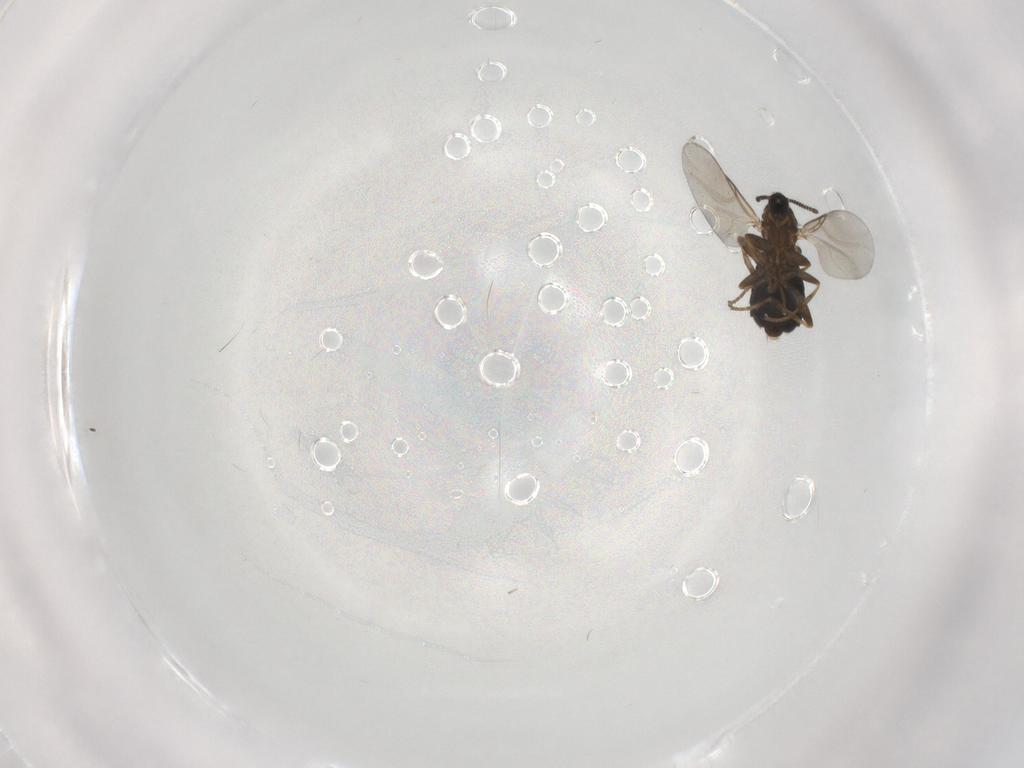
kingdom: Animalia
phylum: Arthropoda
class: Insecta
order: Diptera
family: Scatopsidae
